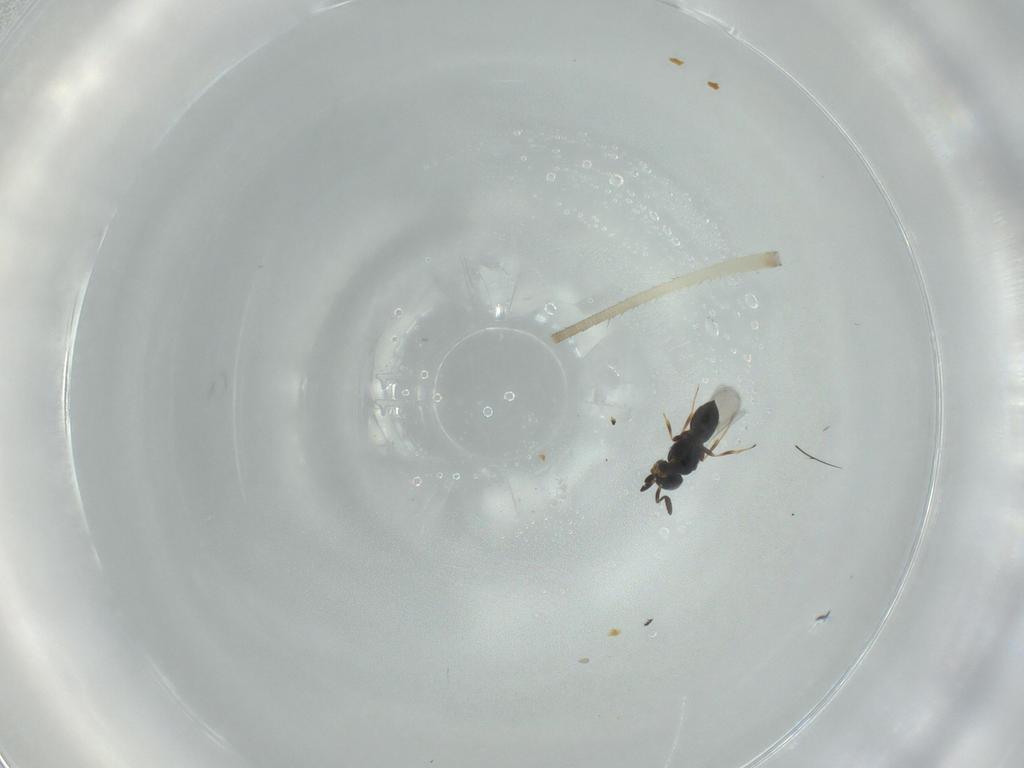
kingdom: Animalia
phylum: Arthropoda
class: Insecta
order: Hymenoptera
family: Scelionidae
